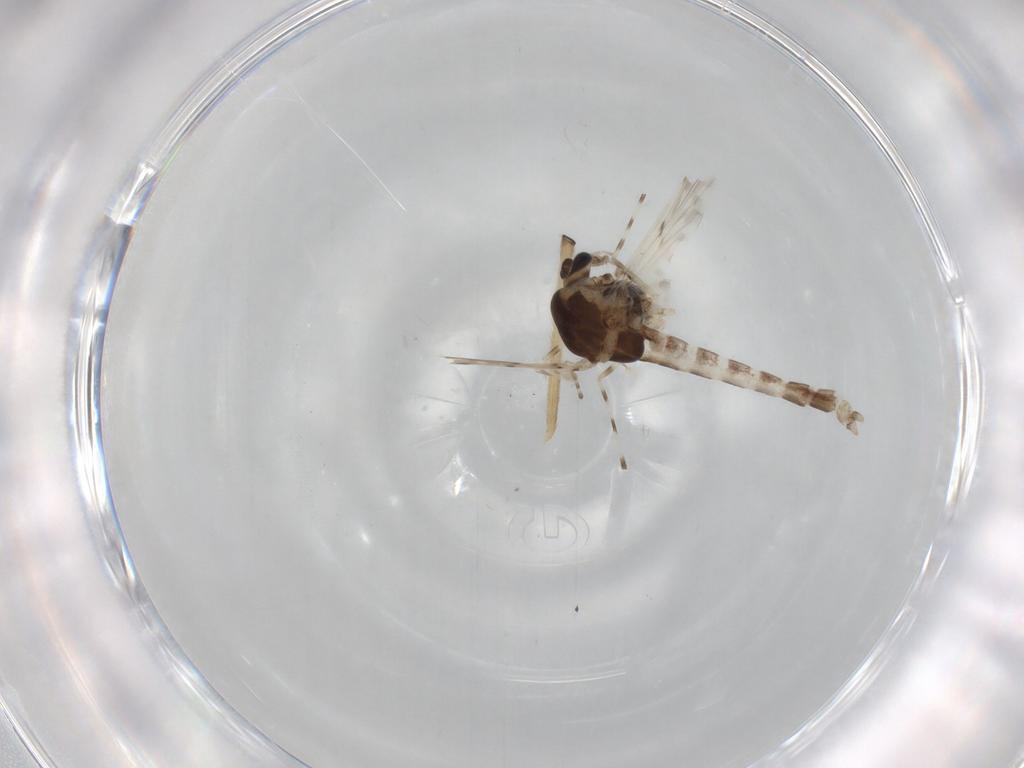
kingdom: Animalia
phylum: Arthropoda
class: Insecta
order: Diptera
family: Chironomidae
